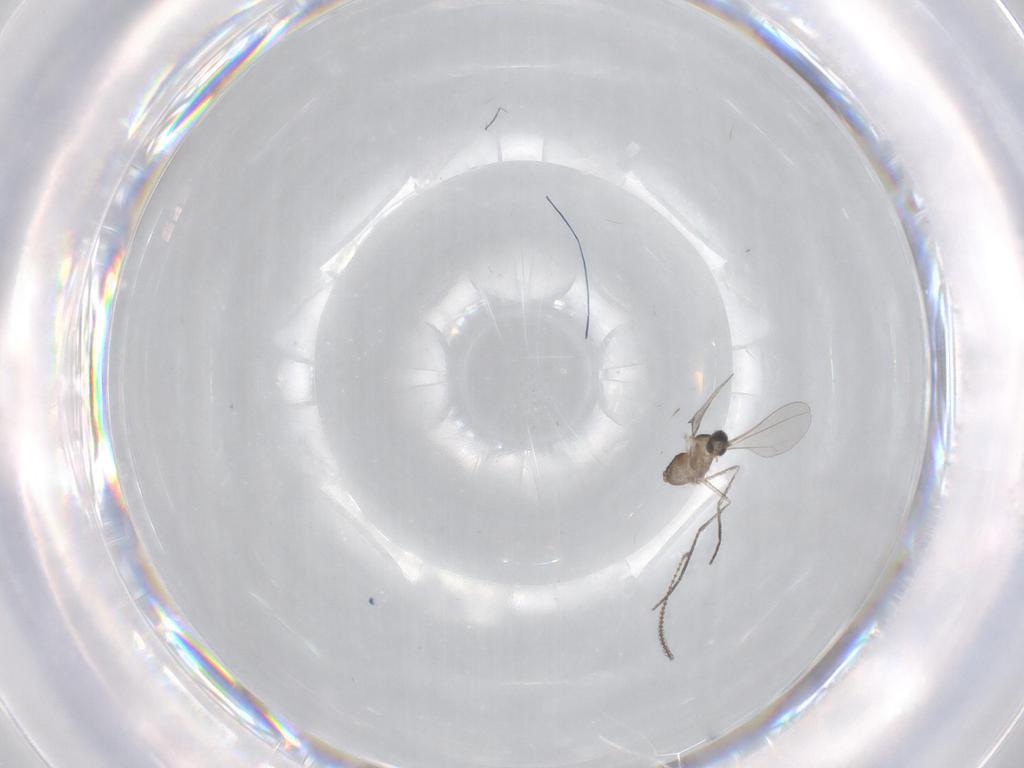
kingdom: Animalia
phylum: Arthropoda
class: Insecta
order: Diptera
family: Cecidomyiidae
